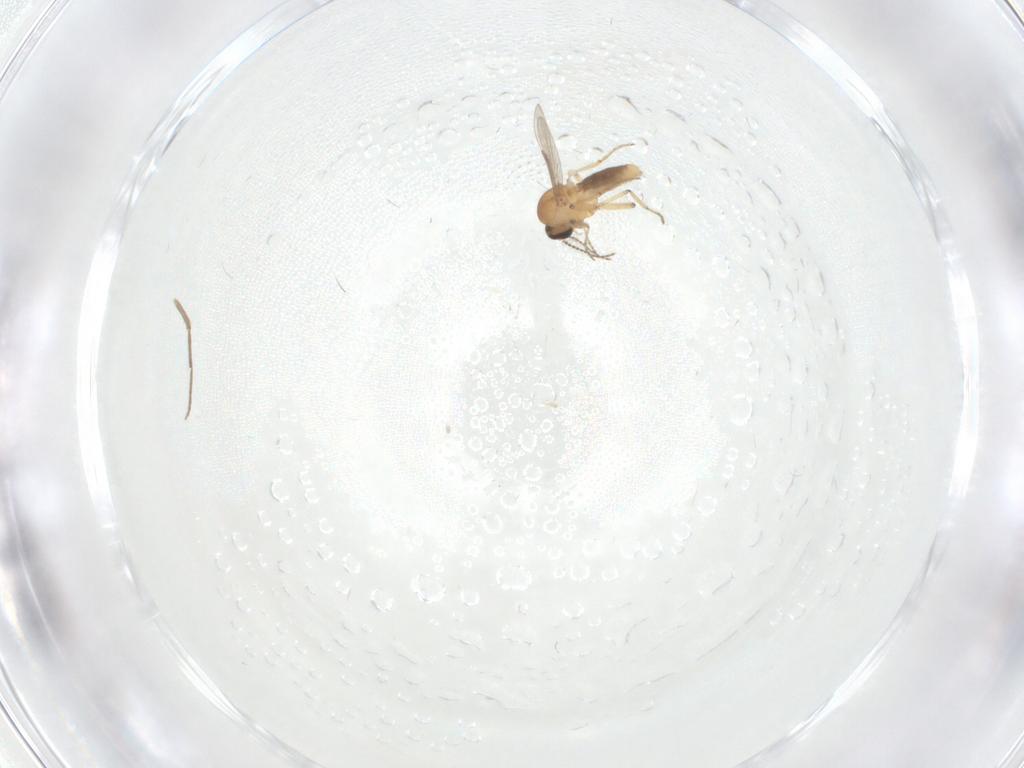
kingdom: Animalia
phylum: Arthropoda
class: Insecta
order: Diptera
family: Ceratopogonidae
